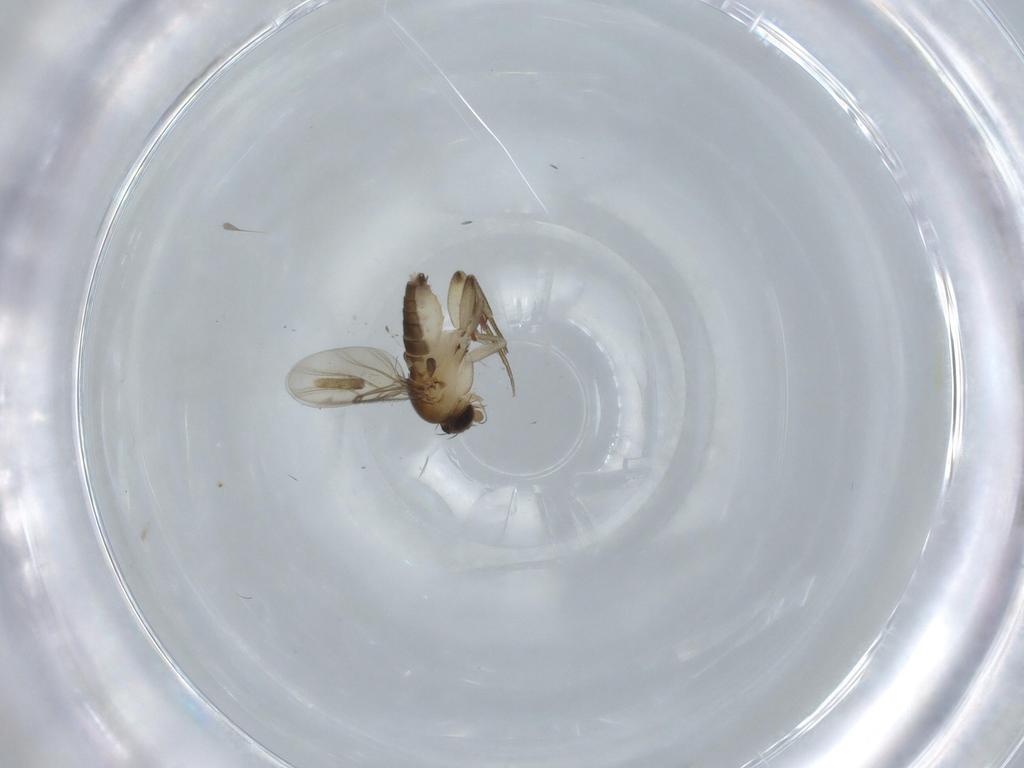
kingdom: Animalia
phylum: Arthropoda
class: Insecta
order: Diptera
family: Phoridae
